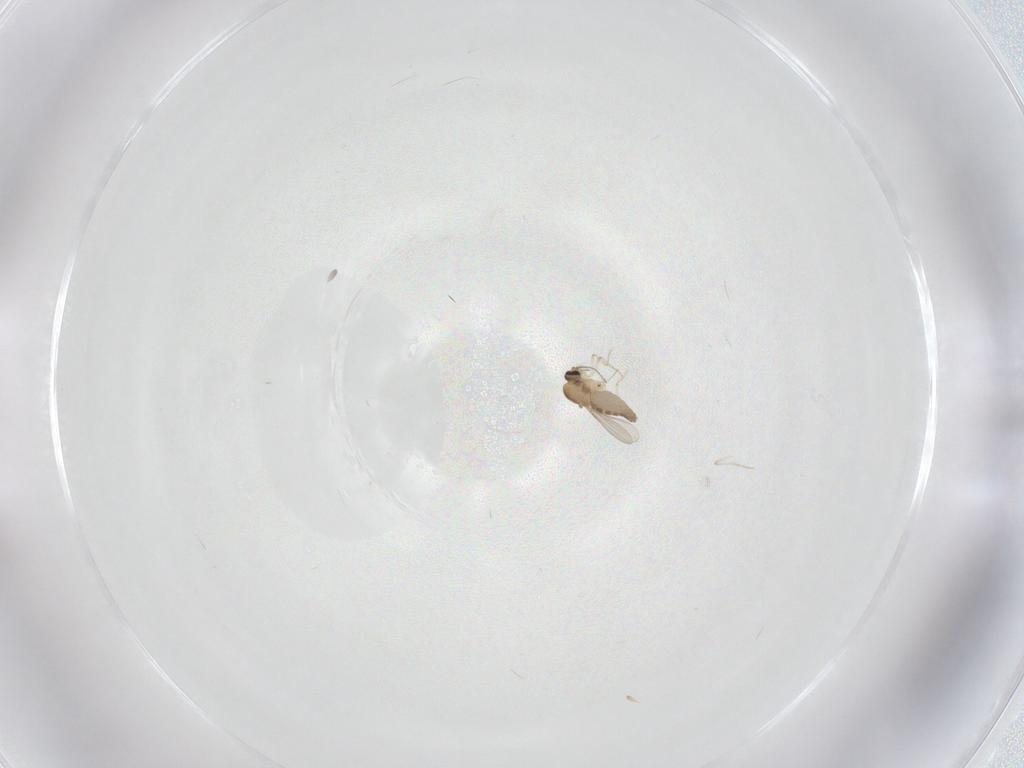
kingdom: Animalia
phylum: Arthropoda
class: Insecta
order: Diptera
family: Ceratopogonidae
